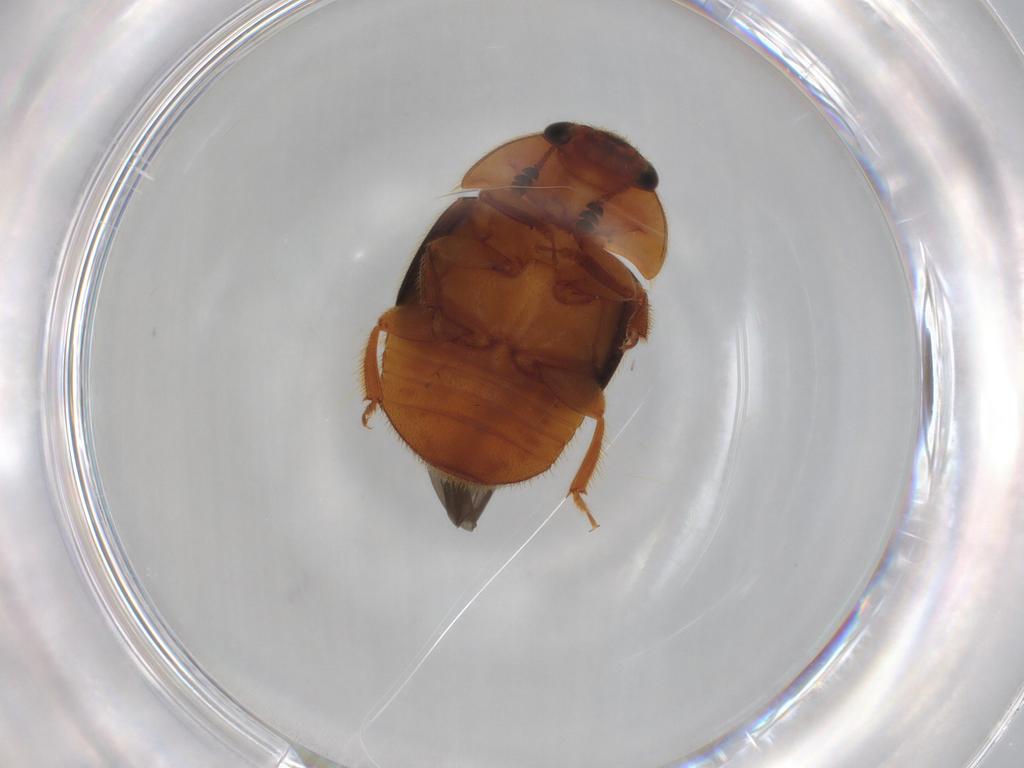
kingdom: Animalia
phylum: Arthropoda
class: Insecta
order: Coleoptera
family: Nitidulidae
